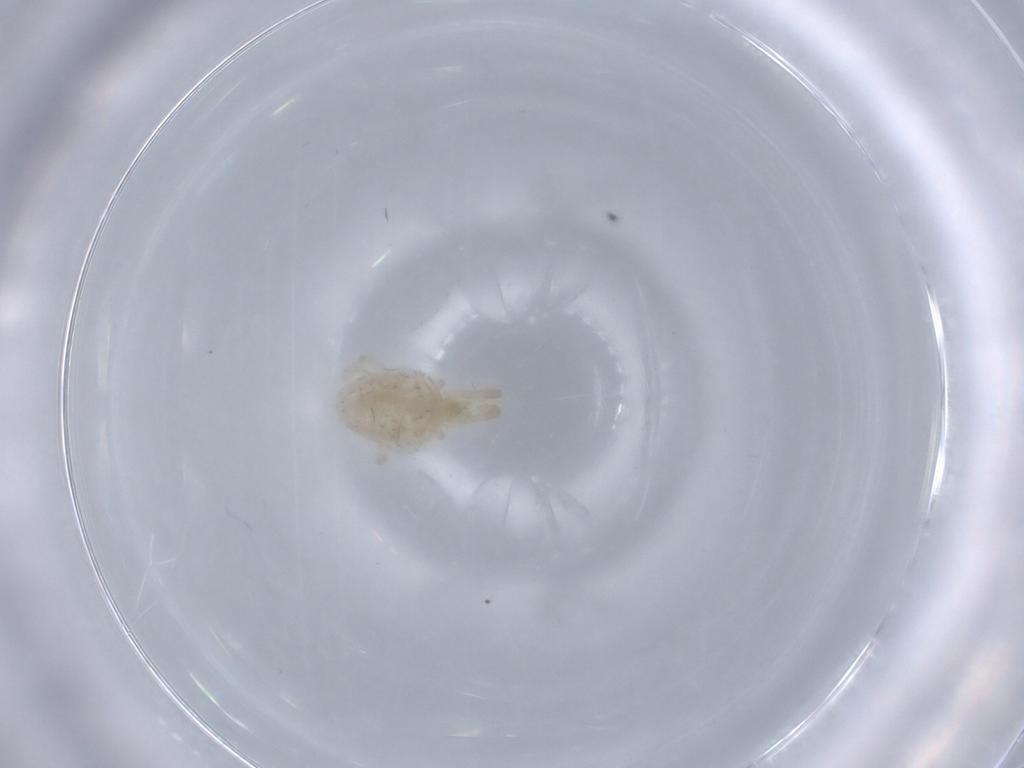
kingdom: Animalia
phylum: Arthropoda
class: Arachnida
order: Trombidiformes
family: Trombidiidae
